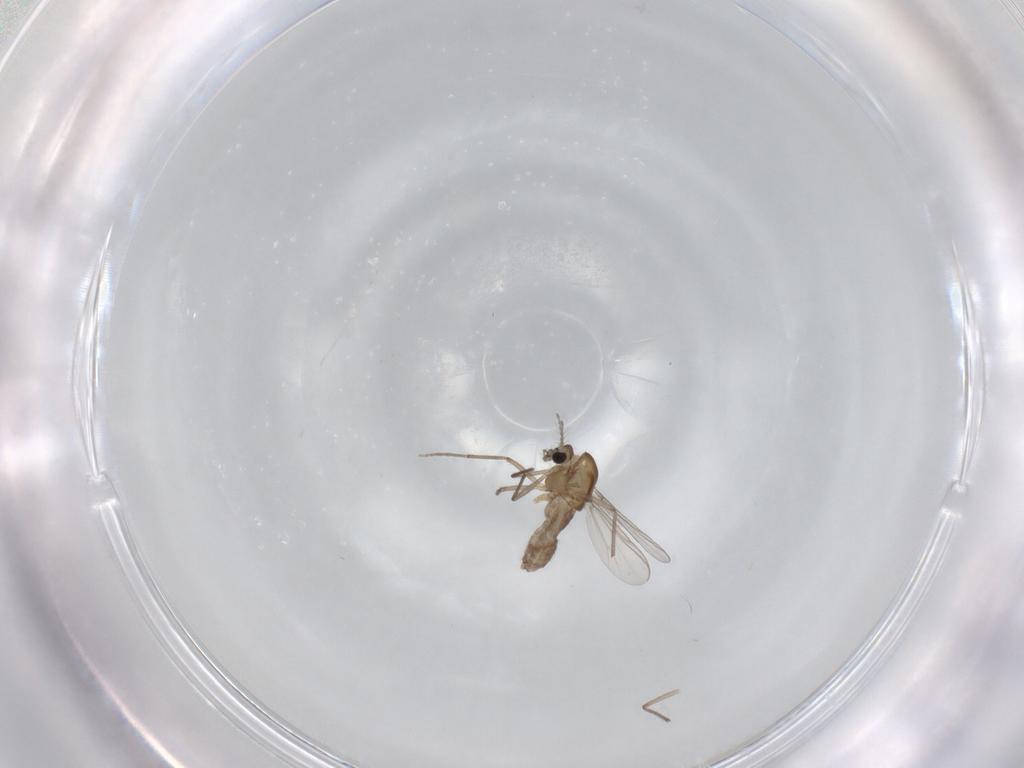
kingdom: Animalia
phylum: Arthropoda
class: Insecta
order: Diptera
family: Chironomidae
